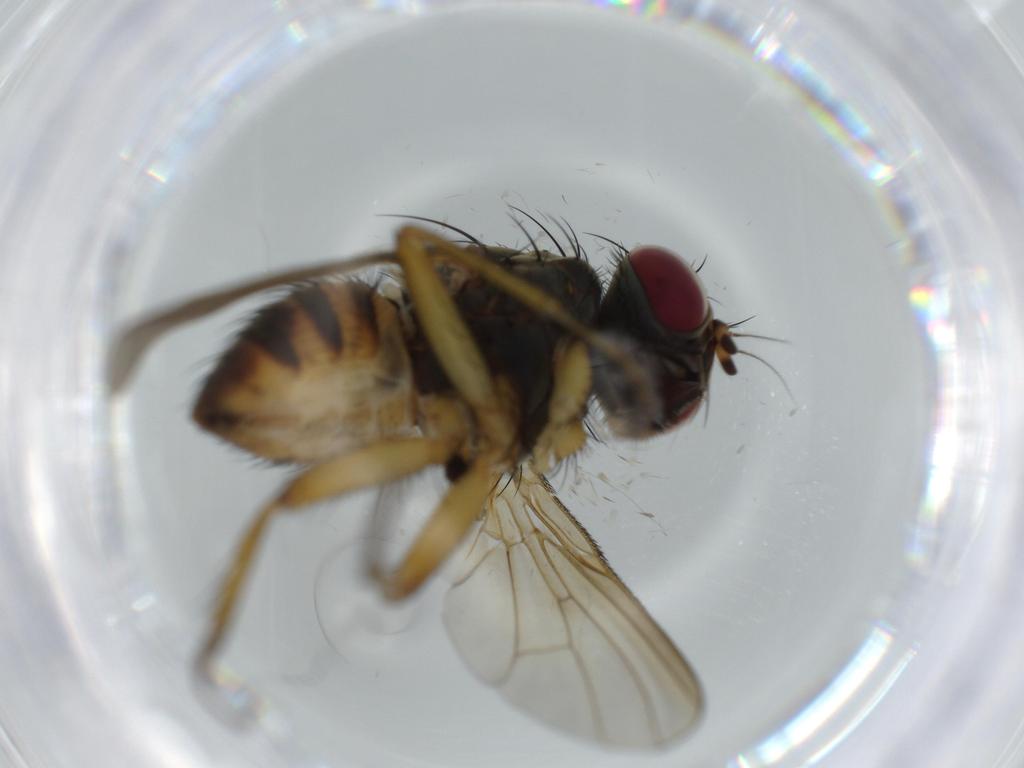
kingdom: Animalia
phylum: Arthropoda
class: Insecta
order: Diptera
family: Muscidae
